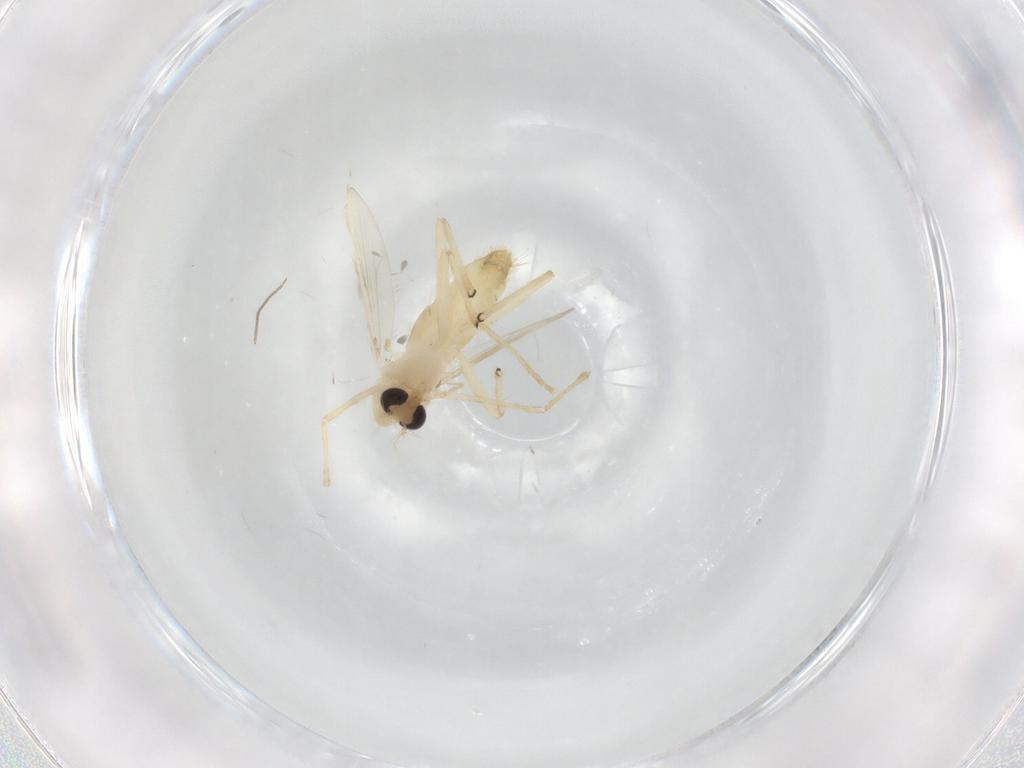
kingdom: Animalia
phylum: Arthropoda
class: Insecta
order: Diptera
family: Chironomidae
